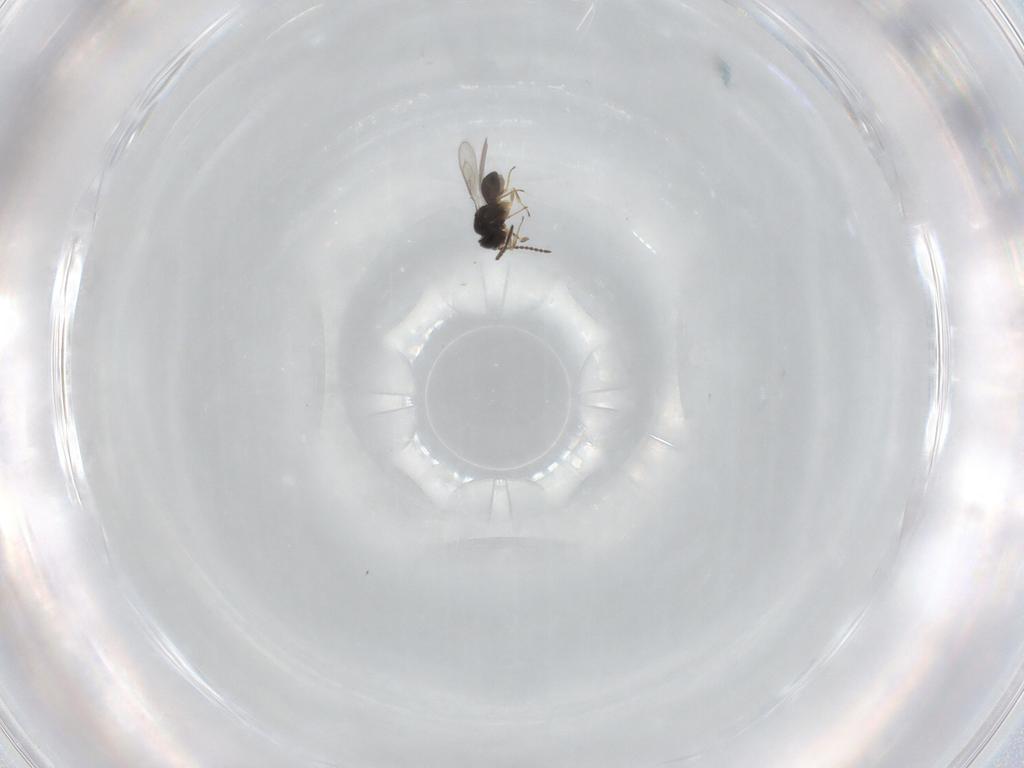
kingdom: Animalia
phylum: Arthropoda
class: Insecta
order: Hymenoptera
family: Scelionidae
